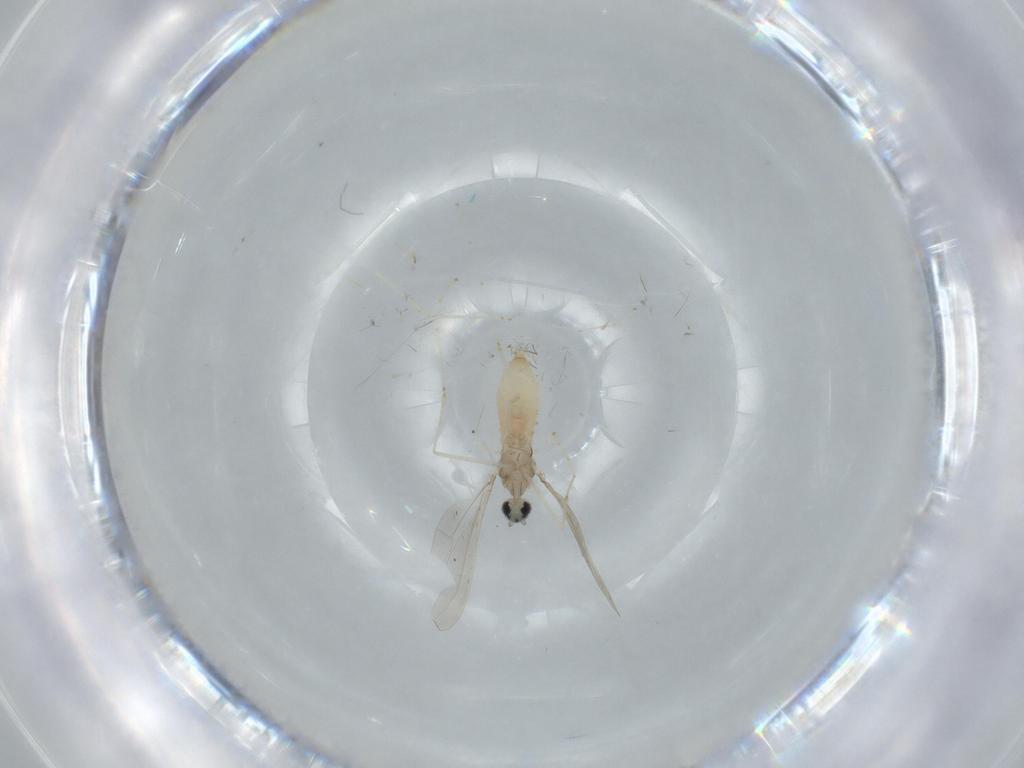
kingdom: Animalia
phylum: Arthropoda
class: Insecta
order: Diptera
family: Cecidomyiidae
